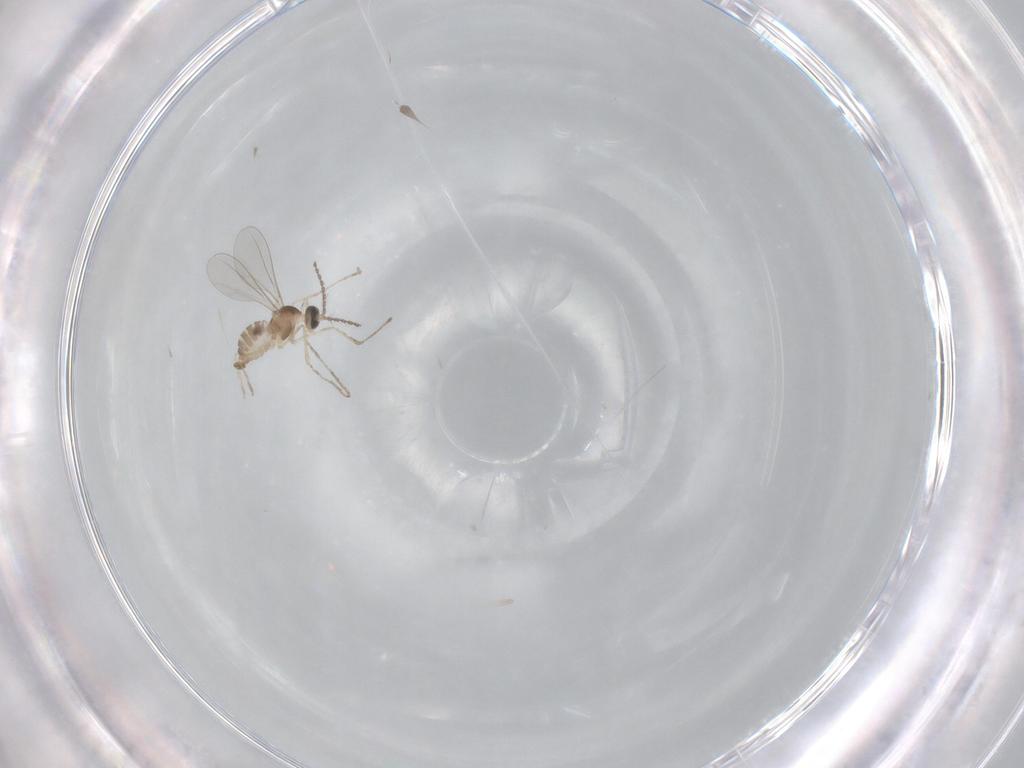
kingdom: Animalia
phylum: Arthropoda
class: Insecta
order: Diptera
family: Cecidomyiidae
